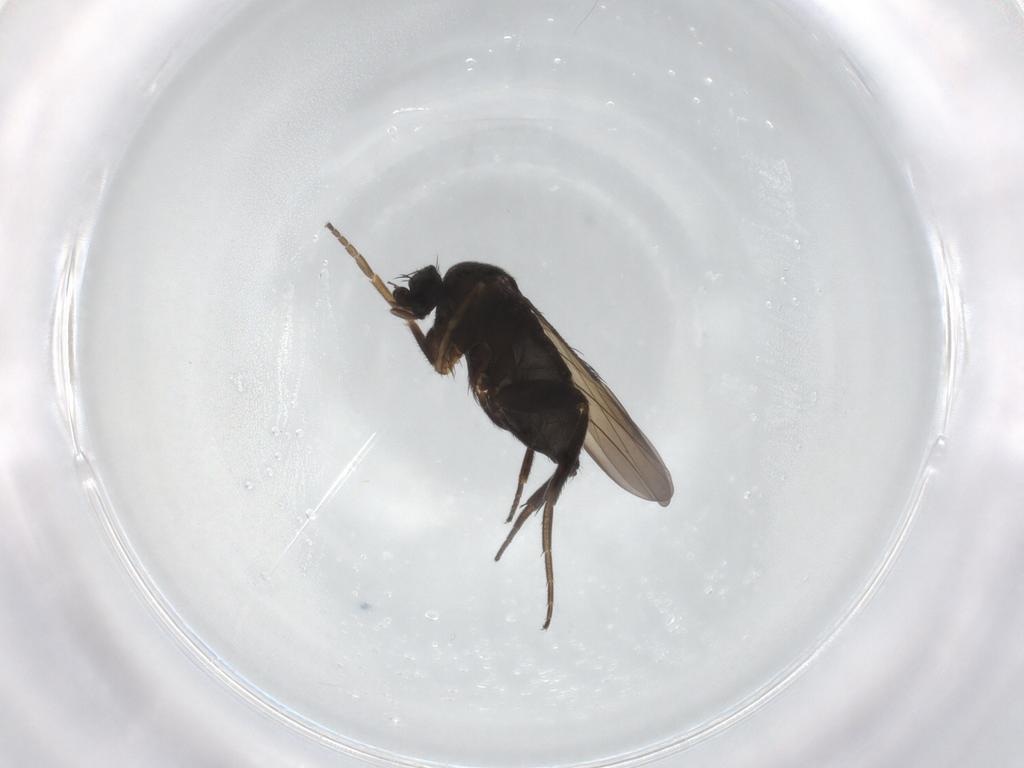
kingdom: Animalia
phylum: Arthropoda
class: Insecta
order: Diptera
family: Phoridae
